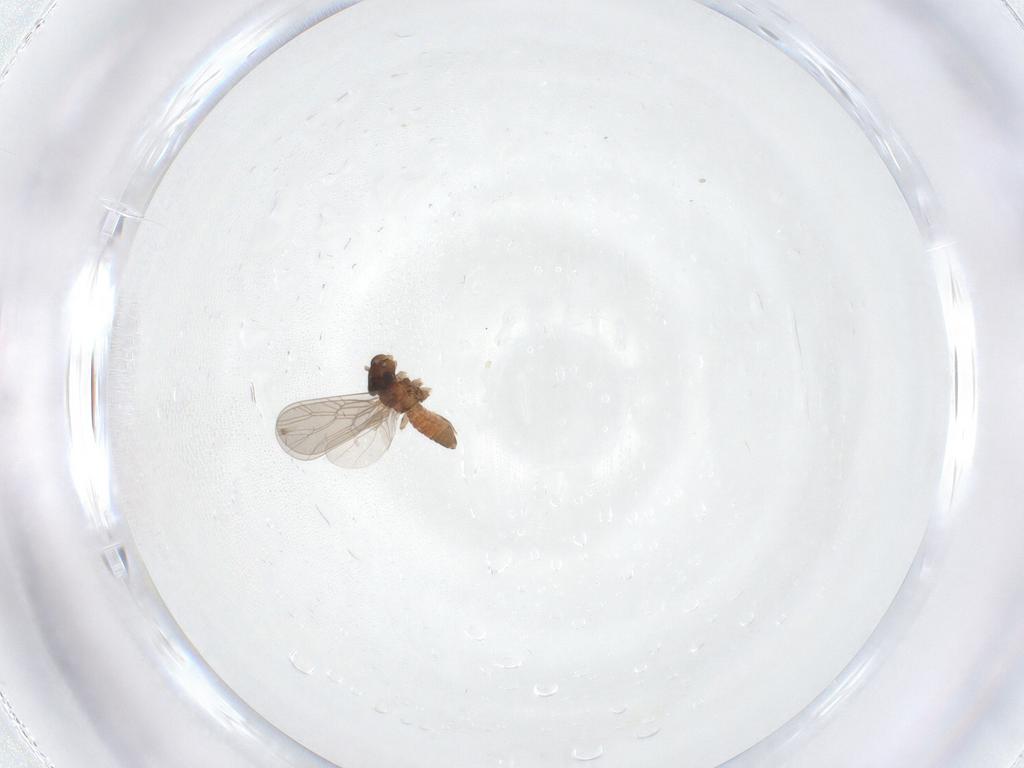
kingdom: Animalia
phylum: Arthropoda
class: Insecta
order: Psocodea
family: Lepidopsocidae
